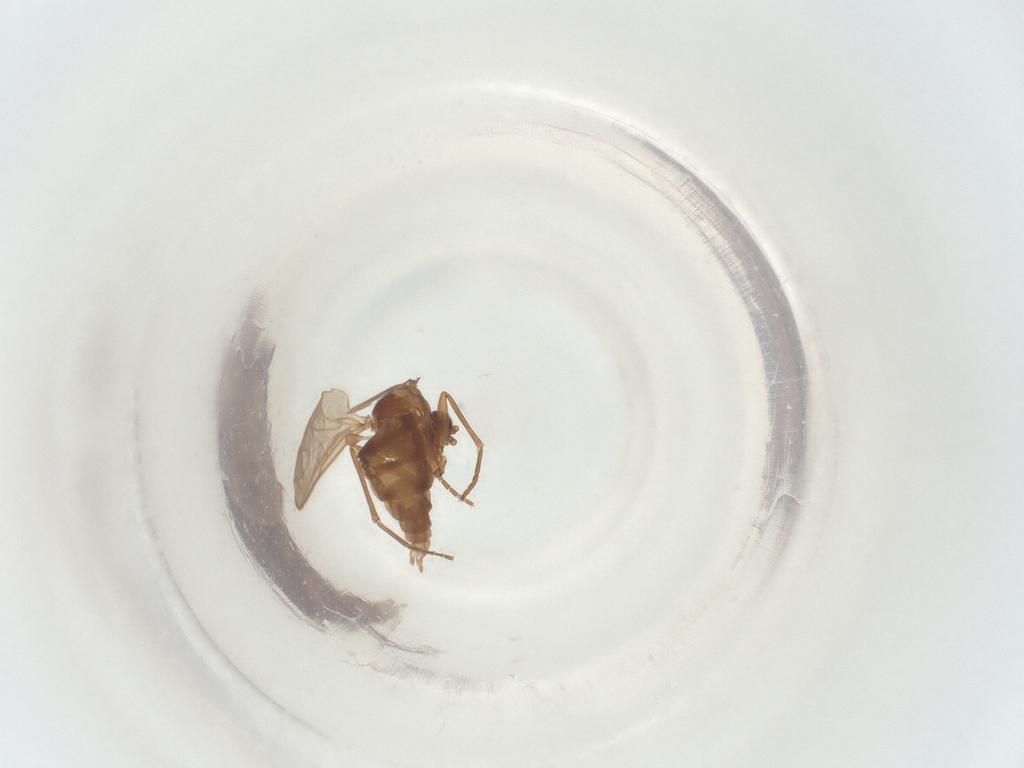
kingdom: Animalia
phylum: Arthropoda
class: Insecta
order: Diptera
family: Sciaridae
